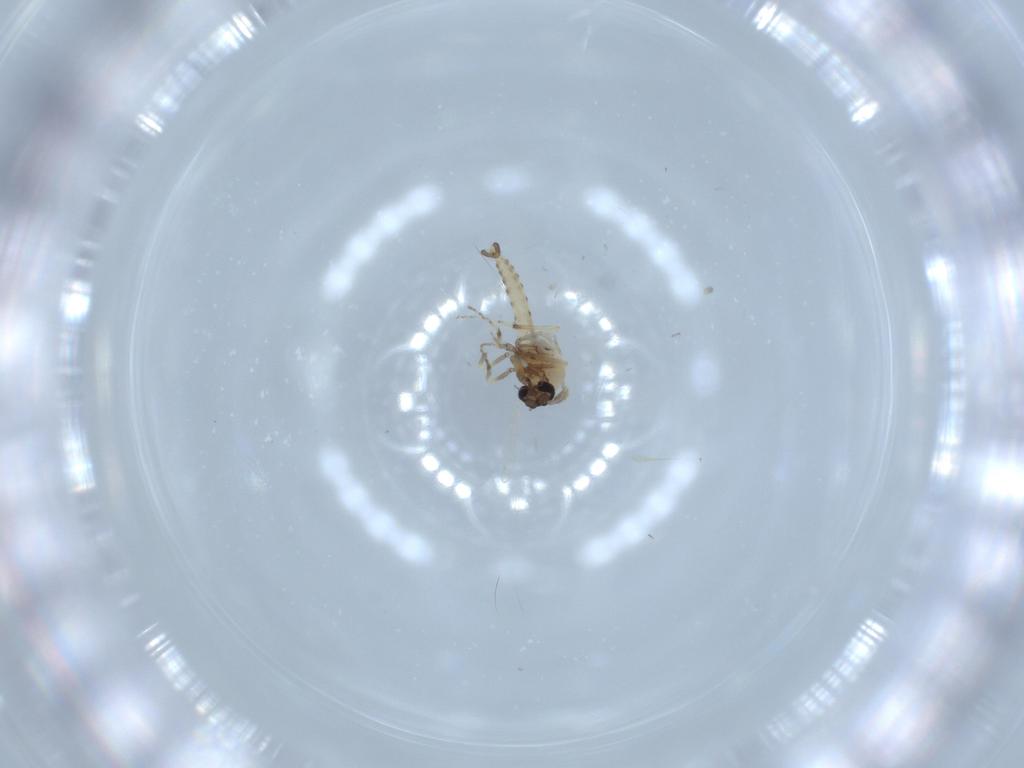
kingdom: Animalia
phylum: Arthropoda
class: Insecta
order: Diptera
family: Ceratopogonidae
